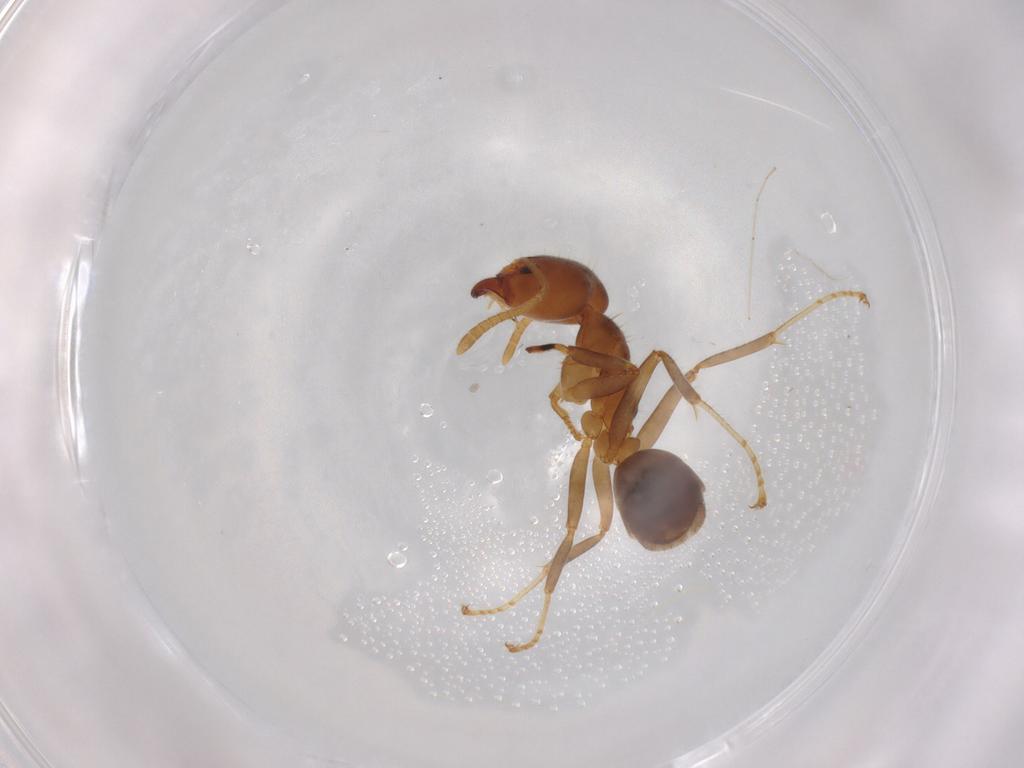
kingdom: Animalia
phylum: Arthropoda
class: Insecta
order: Hymenoptera
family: Formicidae
